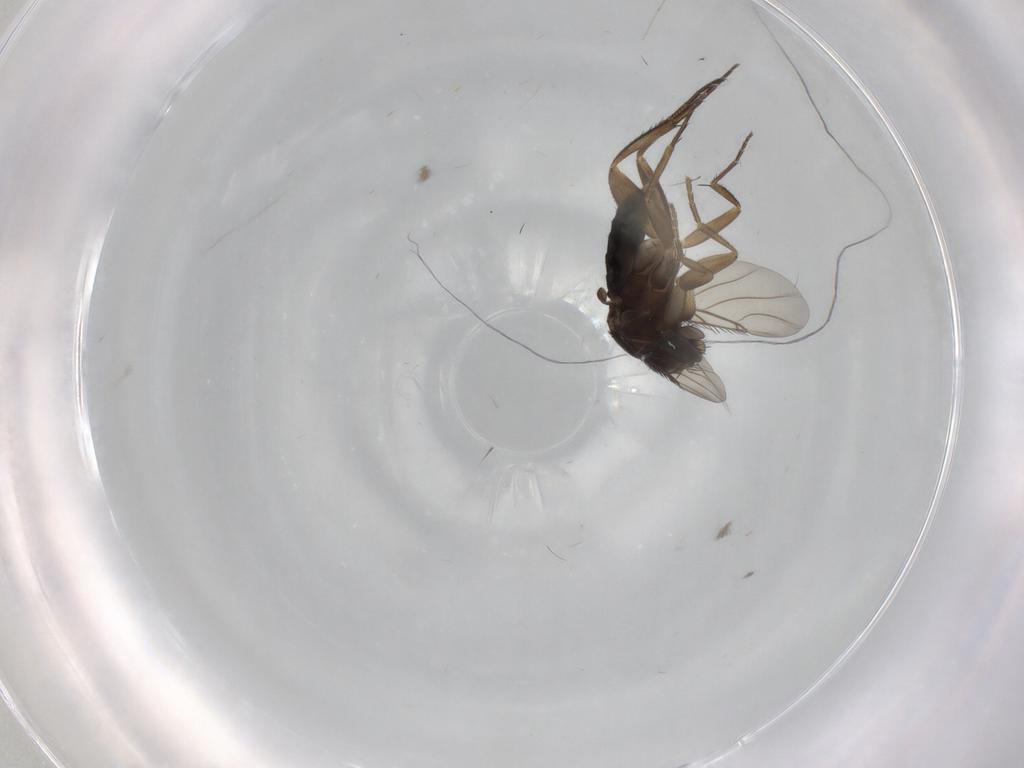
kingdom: Animalia
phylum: Arthropoda
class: Insecta
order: Diptera
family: Phoridae
